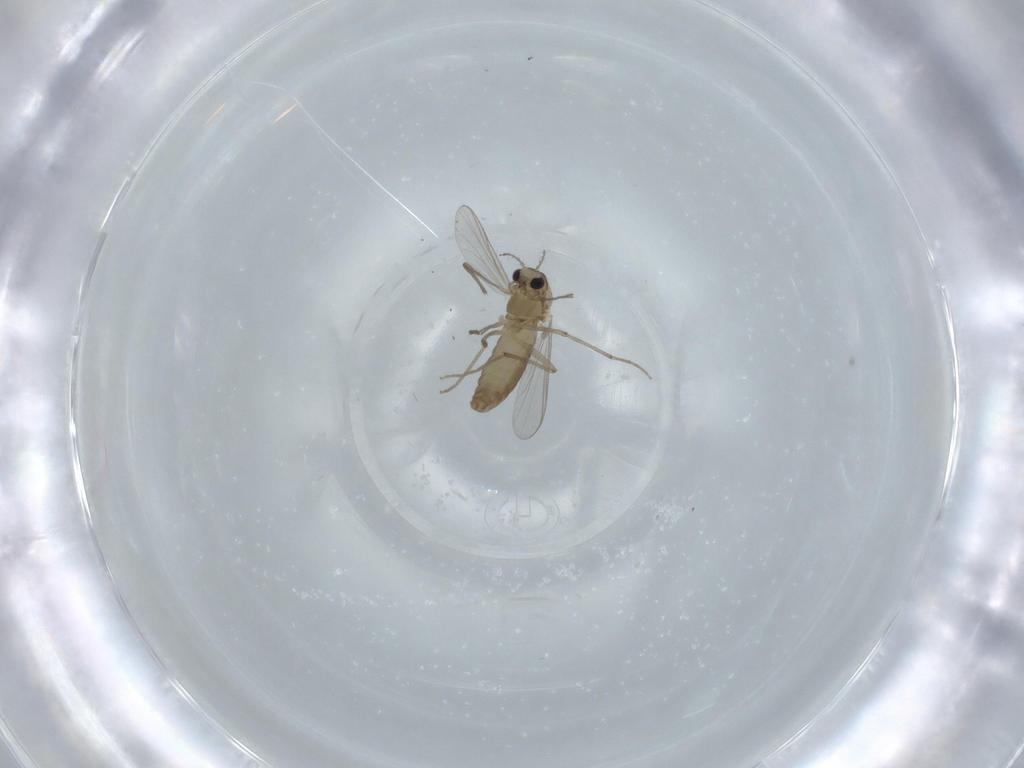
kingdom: Animalia
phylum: Arthropoda
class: Insecta
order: Diptera
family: Chironomidae
